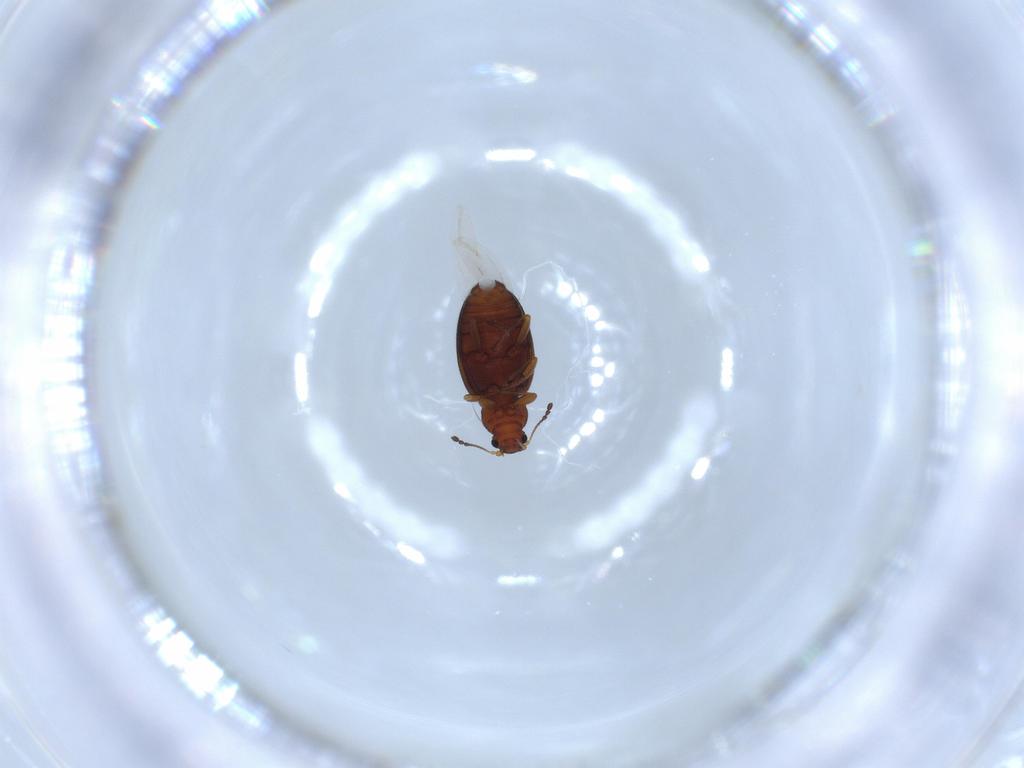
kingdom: Animalia
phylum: Arthropoda
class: Insecta
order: Coleoptera
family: Latridiidae
